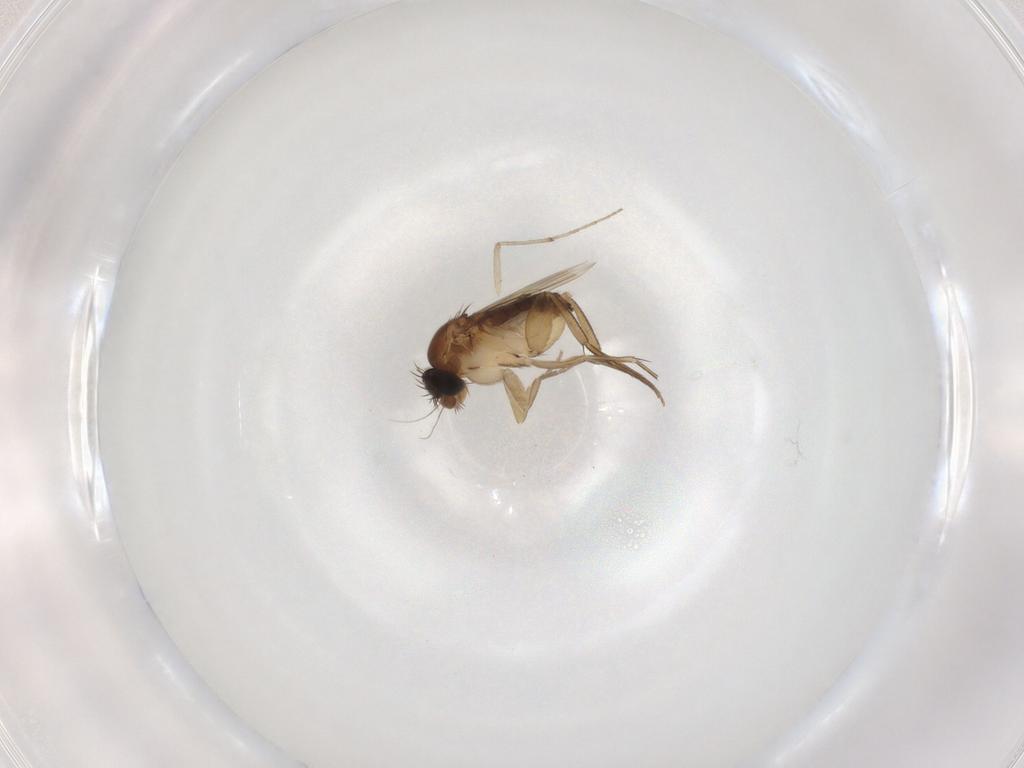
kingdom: Animalia
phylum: Arthropoda
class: Insecta
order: Diptera
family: Phoridae
